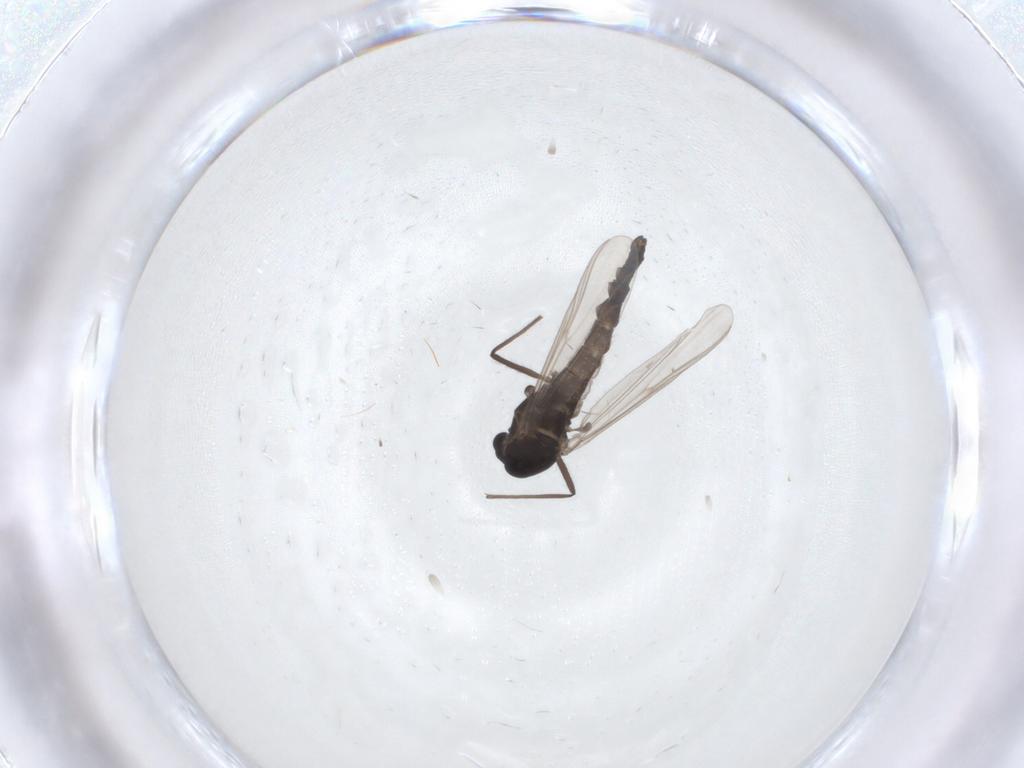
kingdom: Animalia
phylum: Arthropoda
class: Insecta
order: Diptera
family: Chironomidae
